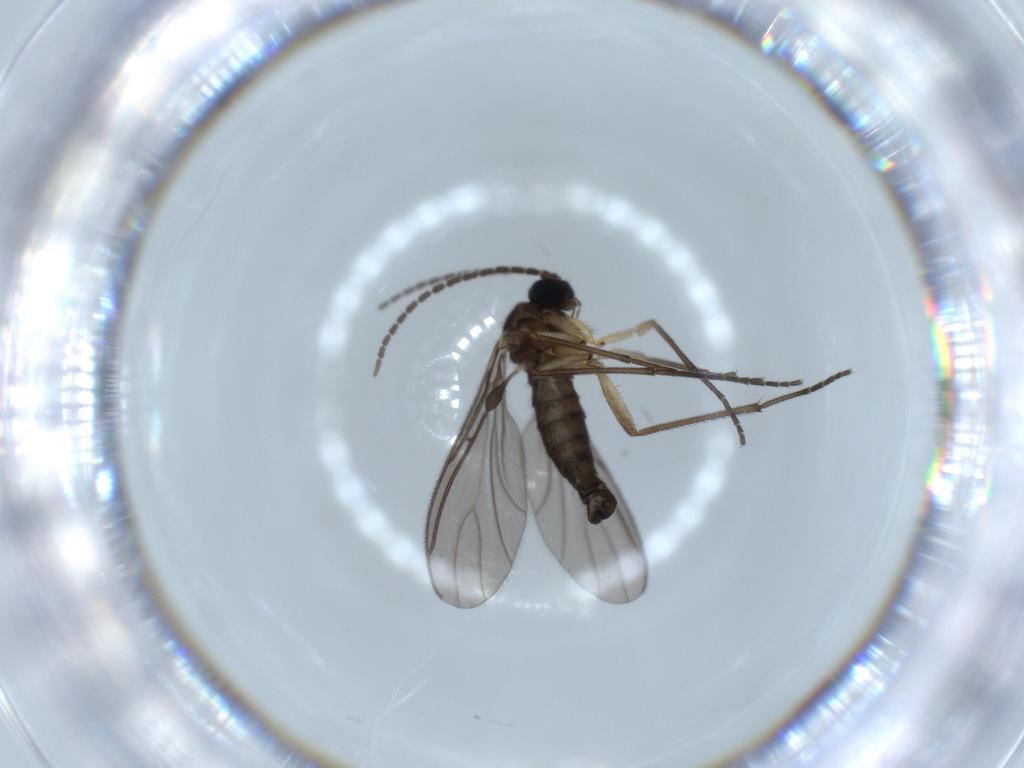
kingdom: Animalia
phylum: Arthropoda
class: Insecta
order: Diptera
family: Sciaridae
